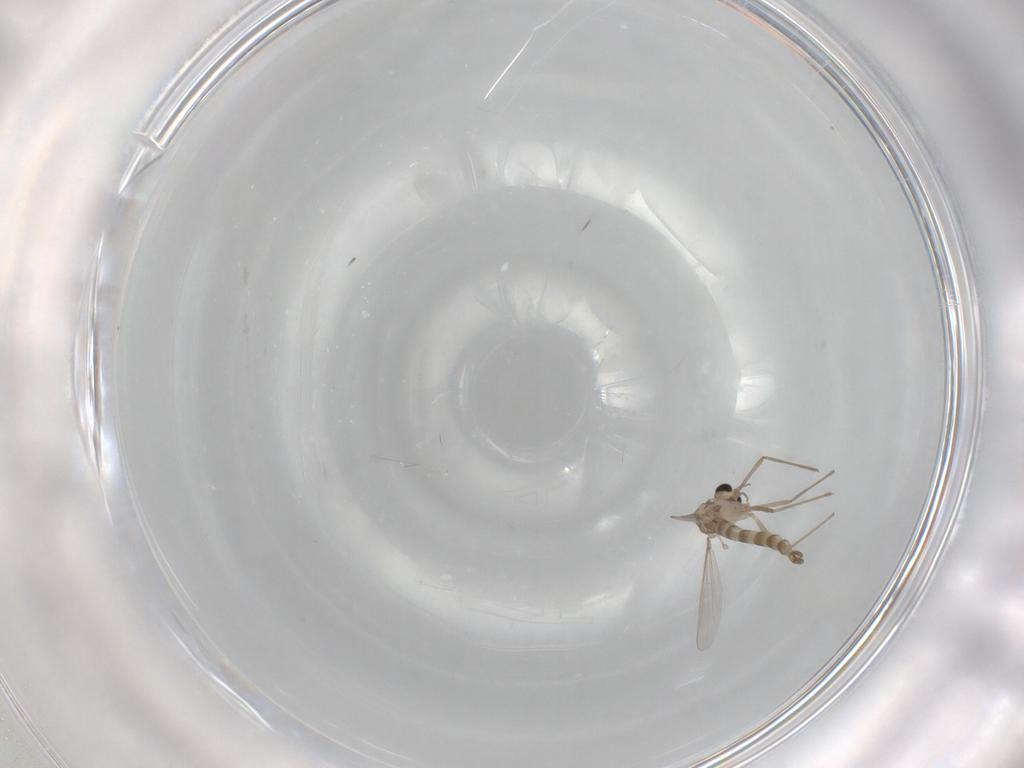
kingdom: Animalia
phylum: Arthropoda
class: Insecta
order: Diptera
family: Chironomidae
